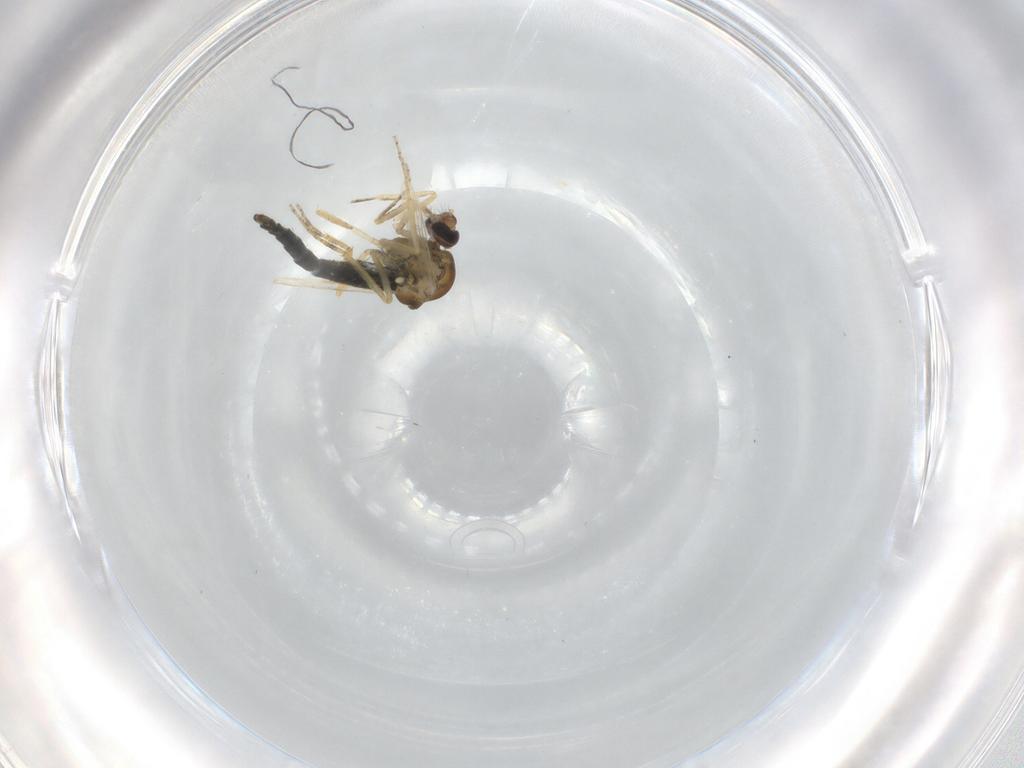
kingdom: Animalia
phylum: Arthropoda
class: Insecta
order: Diptera
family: Ceratopogonidae
